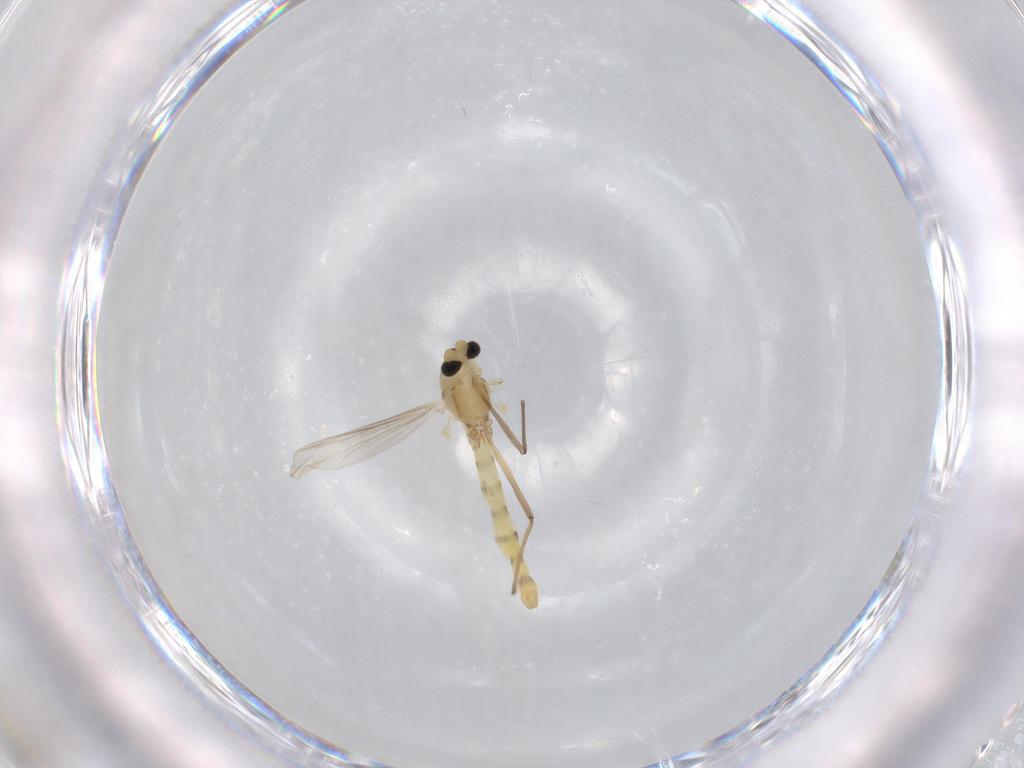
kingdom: Animalia
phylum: Arthropoda
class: Insecta
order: Diptera
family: Chironomidae
